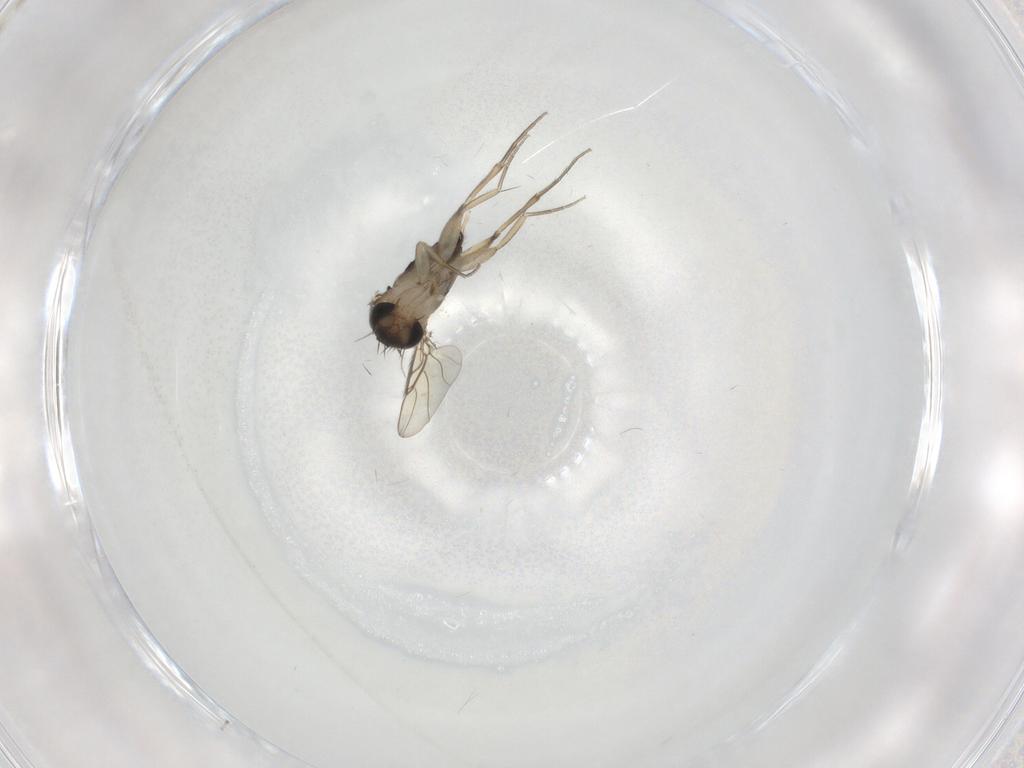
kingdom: Animalia
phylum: Arthropoda
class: Insecta
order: Diptera
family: Phoridae
